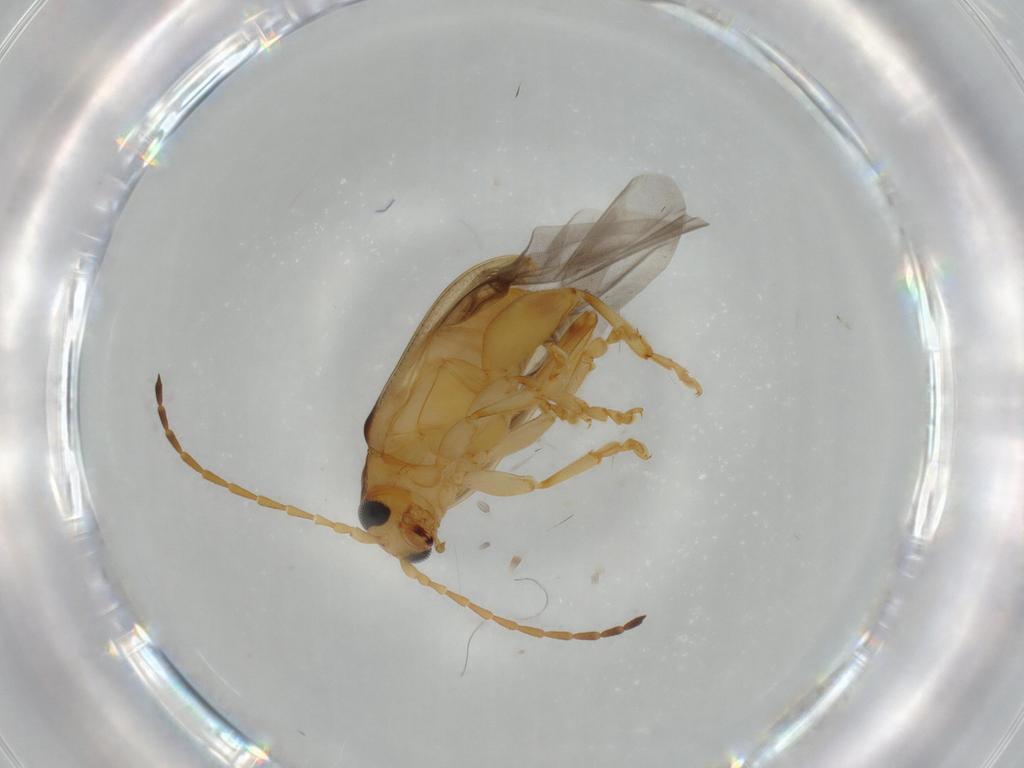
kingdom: Animalia
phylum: Arthropoda
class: Insecta
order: Coleoptera
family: Chrysomelidae
